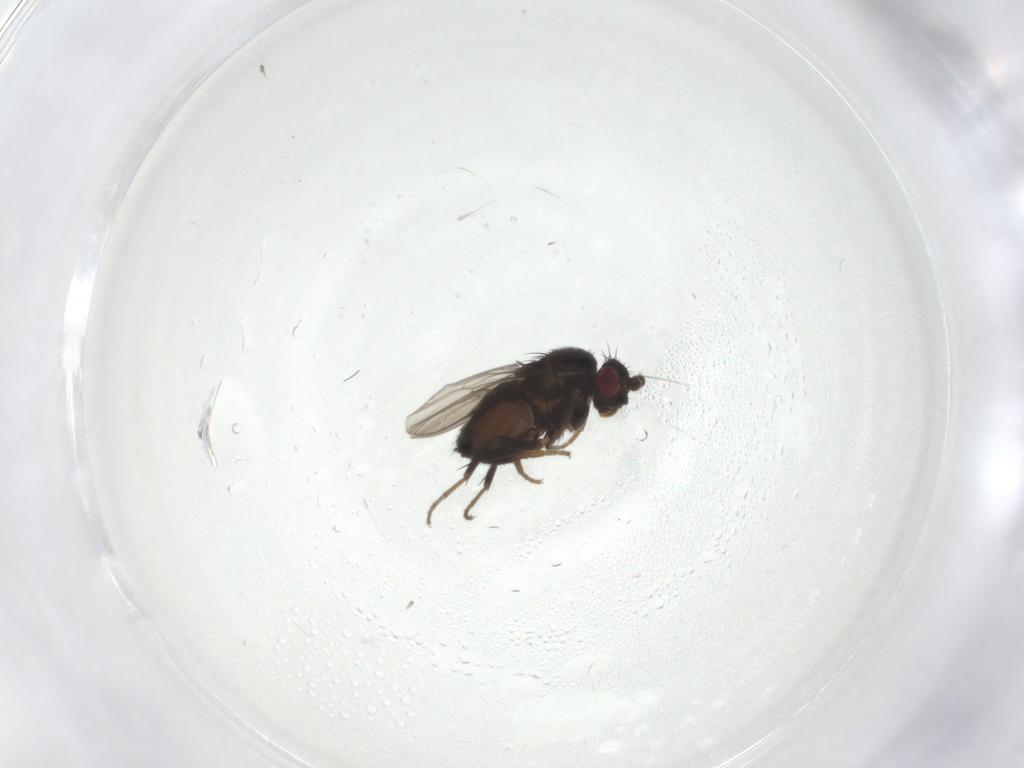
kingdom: Animalia
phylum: Arthropoda
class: Insecta
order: Diptera
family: Sphaeroceridae
